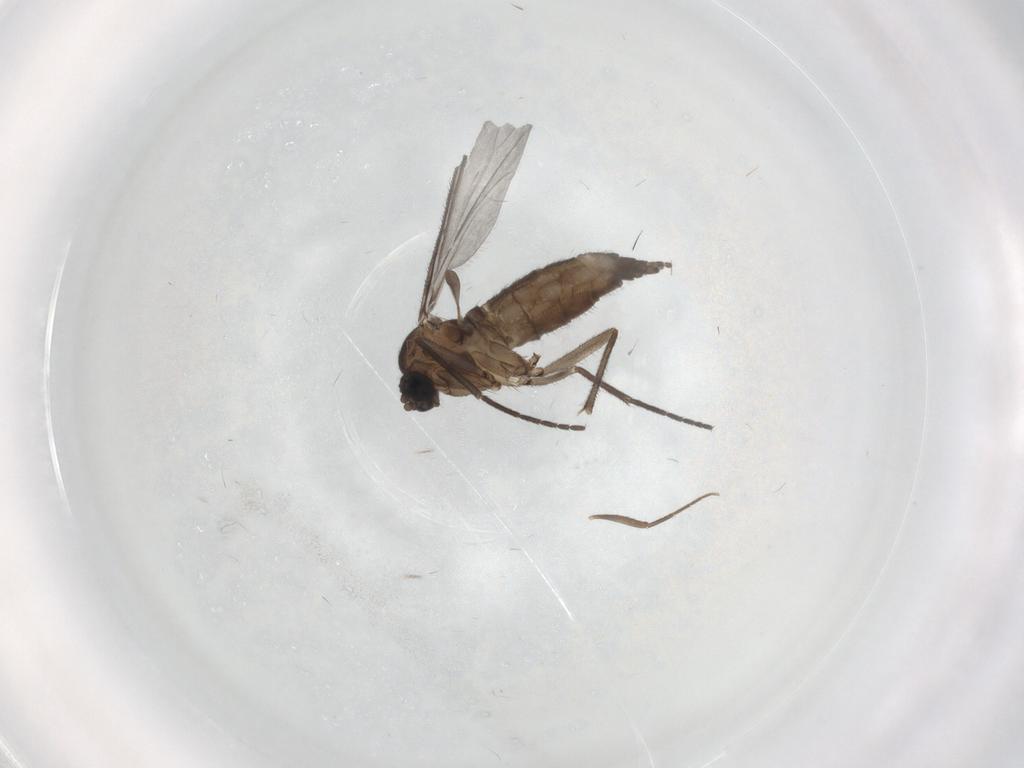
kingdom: Animalia
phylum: Arthropoda
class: Insecta
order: Diptera
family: Sciaridae
